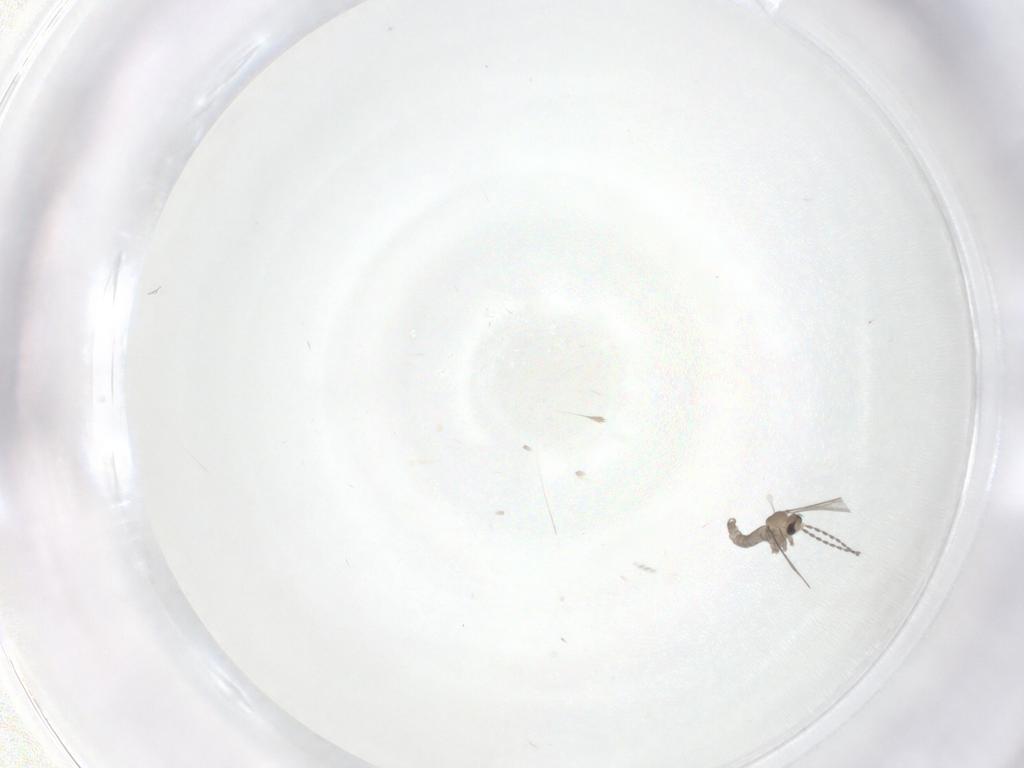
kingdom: Animalia
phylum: Arthropoda
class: Insecta
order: Diptera
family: Cecidomyiidae
